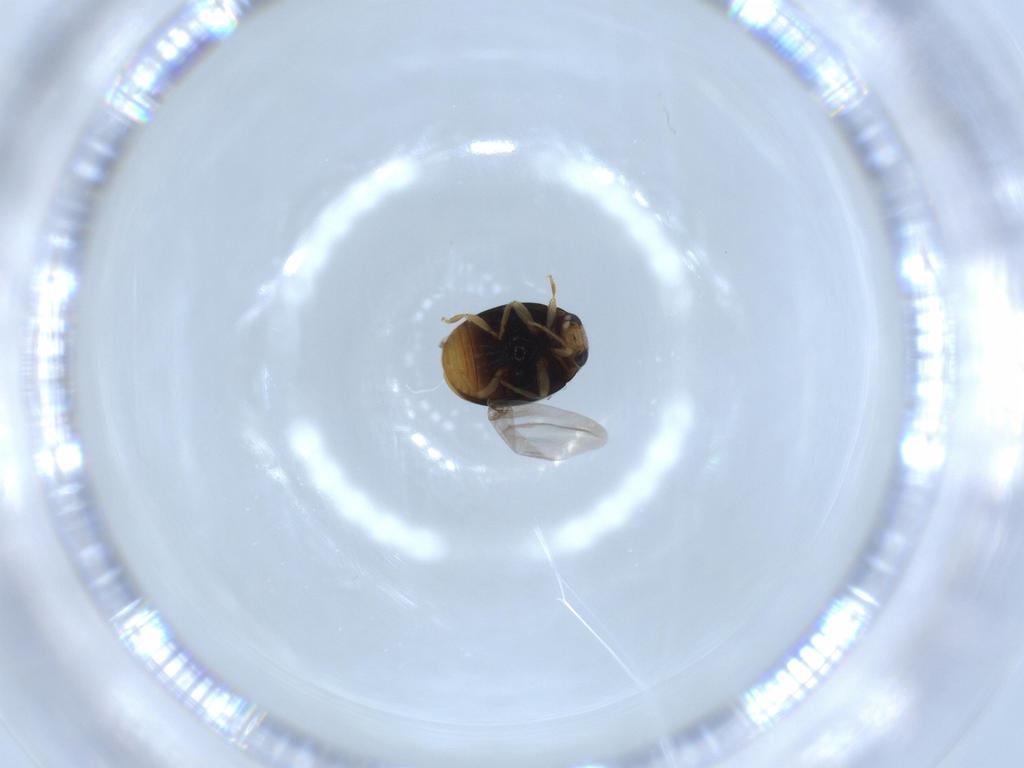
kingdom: Animalia
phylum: Arthropoda
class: Insecta
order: Coleoptera
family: Coccinellidae
